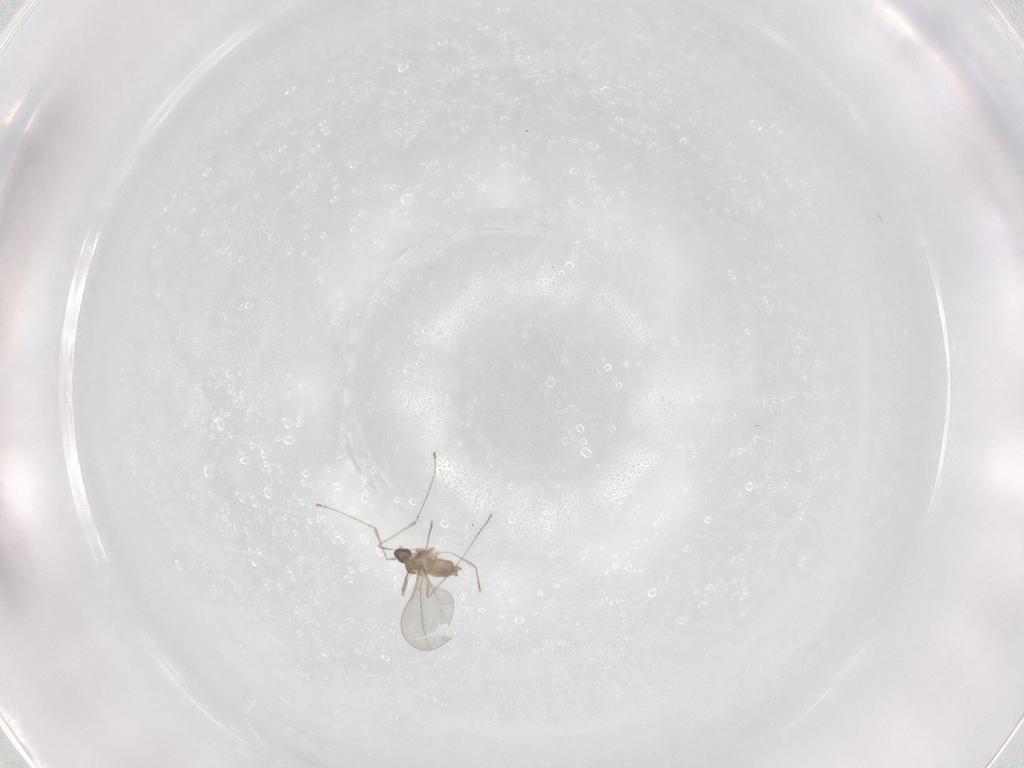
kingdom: Animalia
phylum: Arthropoda
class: Insecta
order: Diptera
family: Cecidomyiidae
